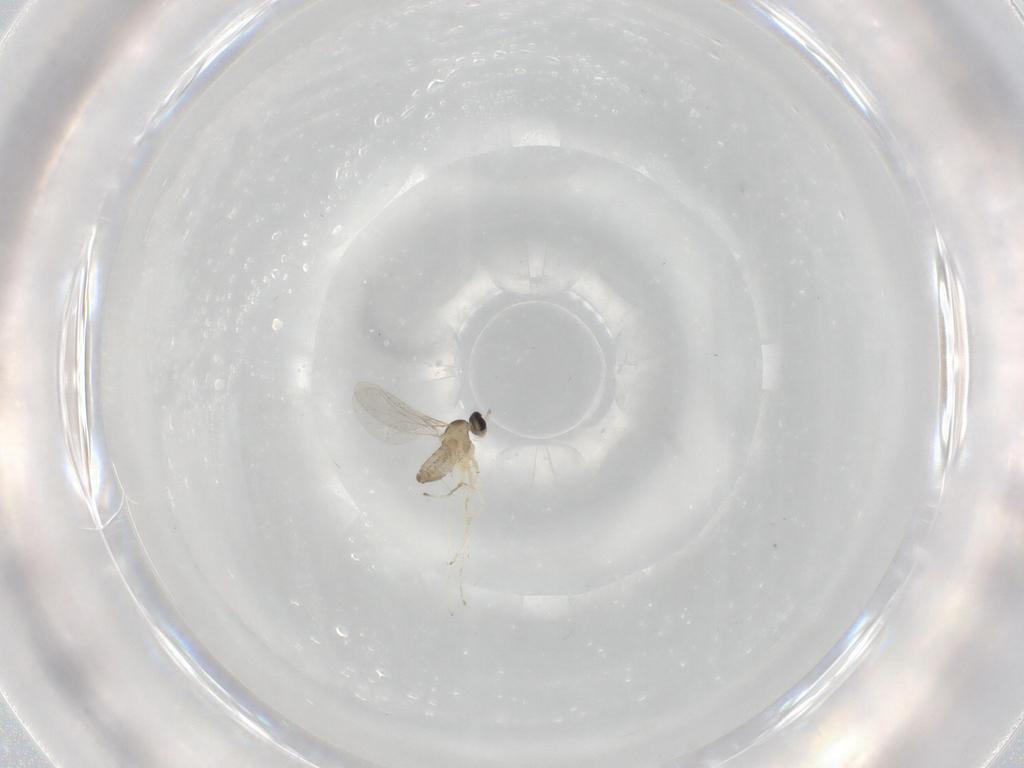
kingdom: Animalia
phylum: Arthropoda
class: Insecta
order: Diptera
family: Cecidomyiidae
